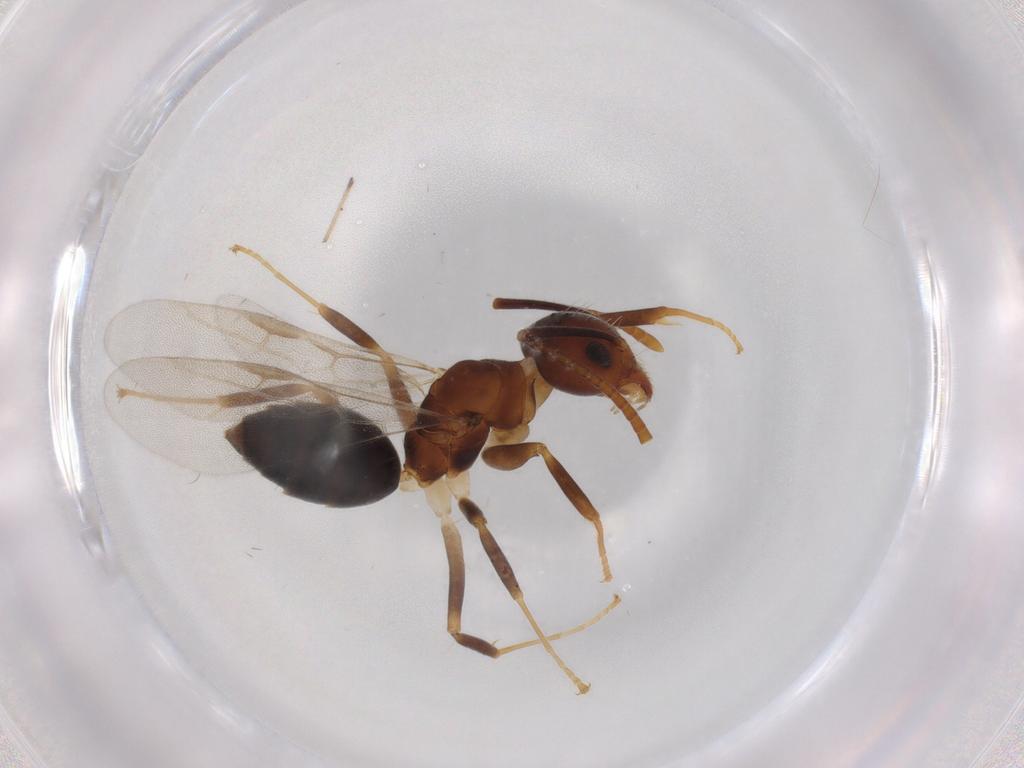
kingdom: Animalia
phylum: Arthropoda
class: Insecta
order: Hymenoptera
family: Formicidae
